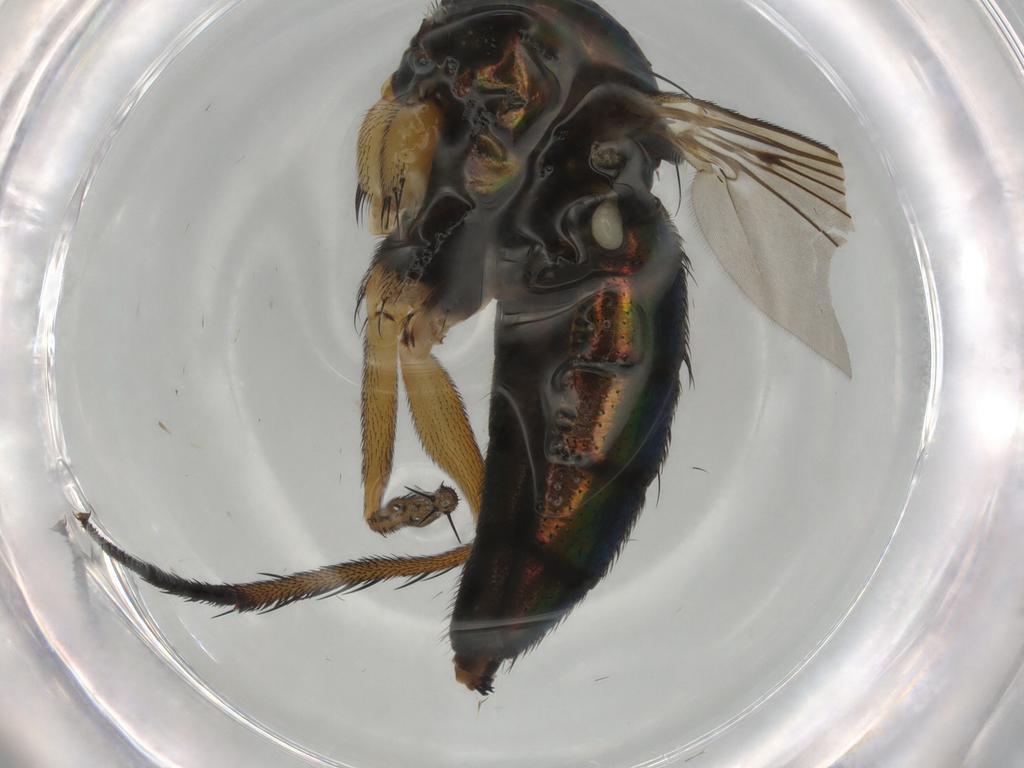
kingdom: Animalia
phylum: Arthropoda
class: Insecta
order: Diptera
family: Dolichopodidae
